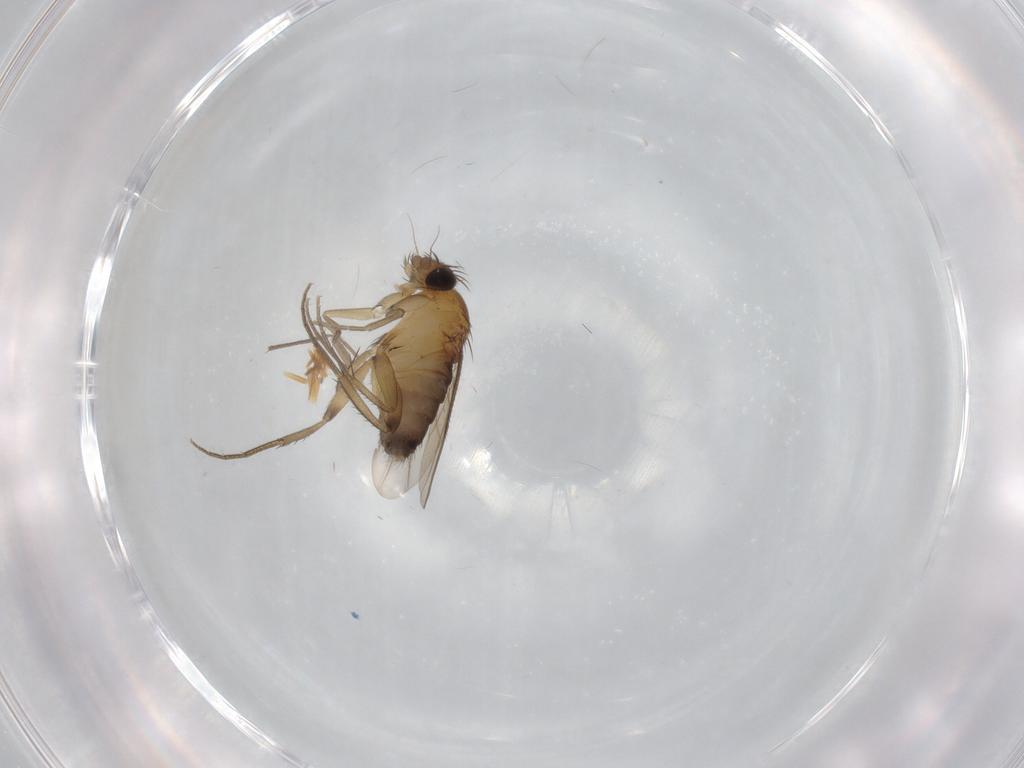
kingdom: Animalia
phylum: Arthropoda
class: Insecta
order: Diptera
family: Phoridae
